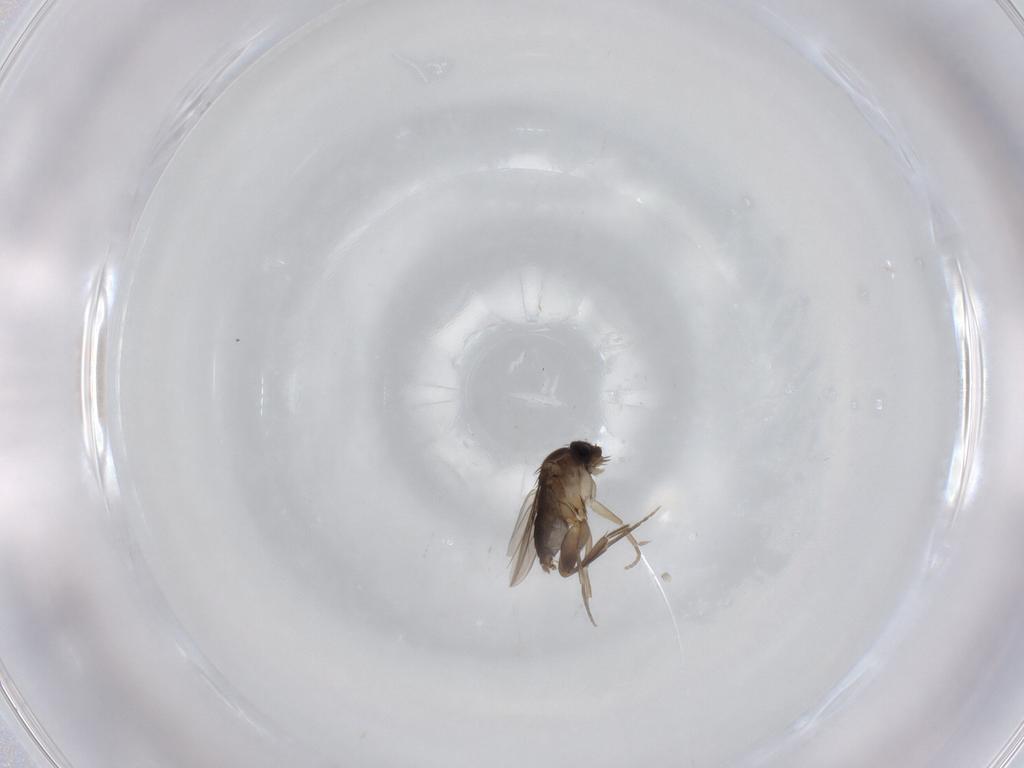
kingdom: Animalia
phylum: Arthropoda
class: Insecta
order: Diptera
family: Phoridae
